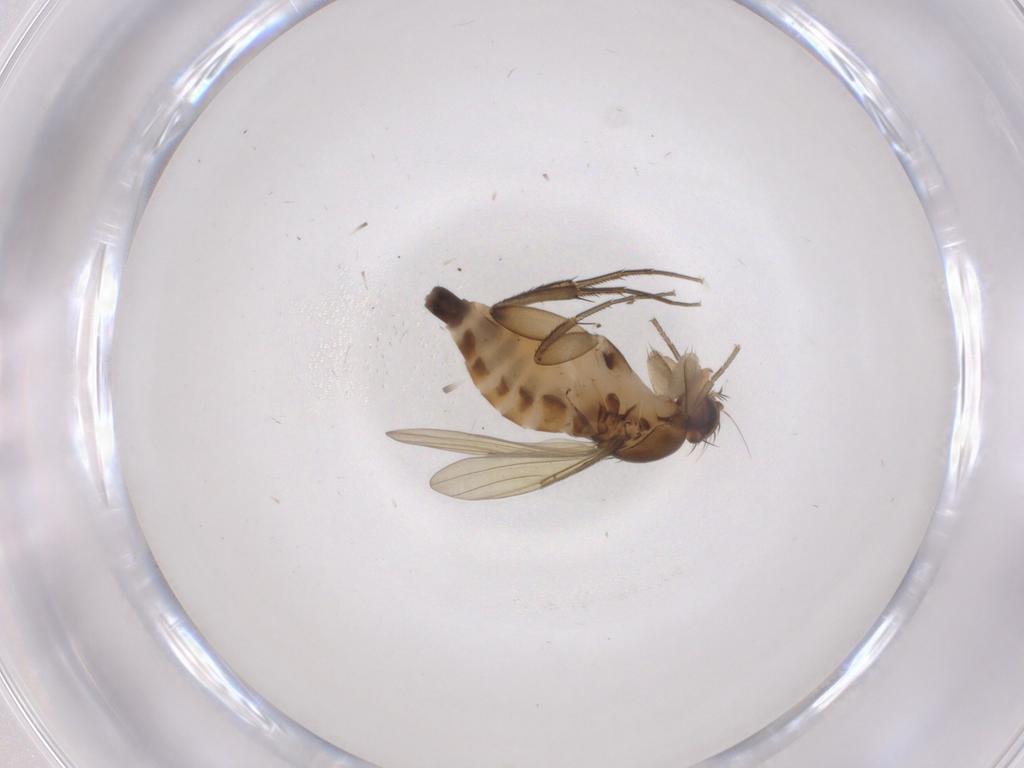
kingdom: Animalia
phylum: Arthropoda
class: Insecta
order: Diptera
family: Phoridae
